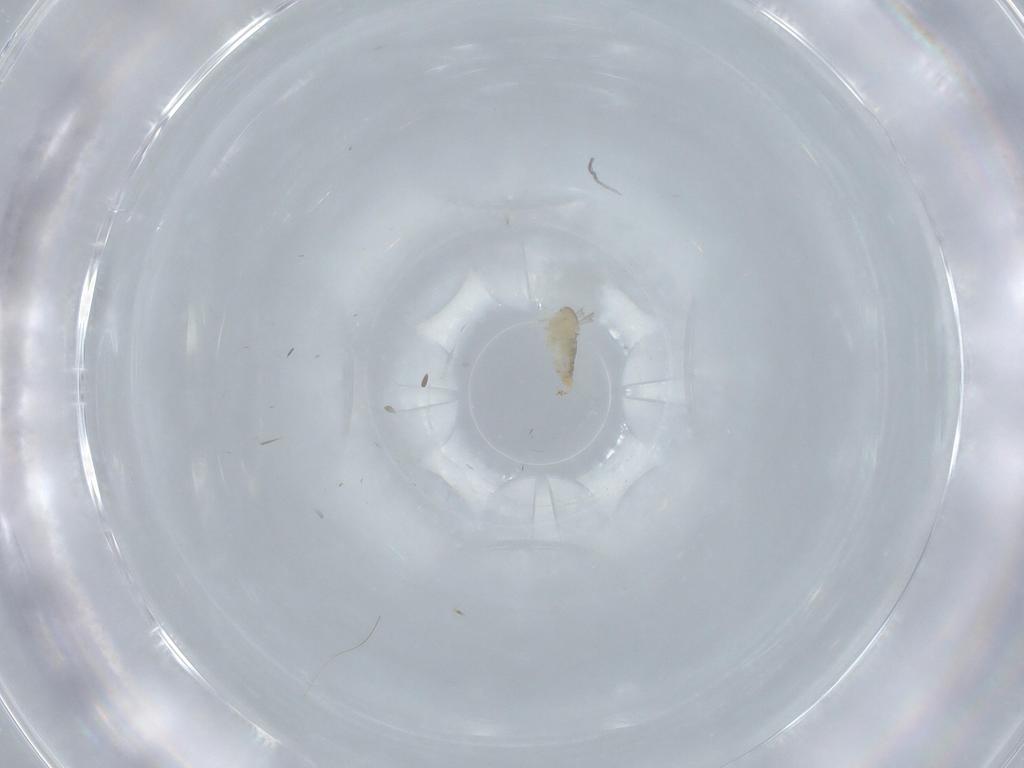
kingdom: Animalia
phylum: Arthropoda
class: Insecta
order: Diptera
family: Cecidomyiidae
